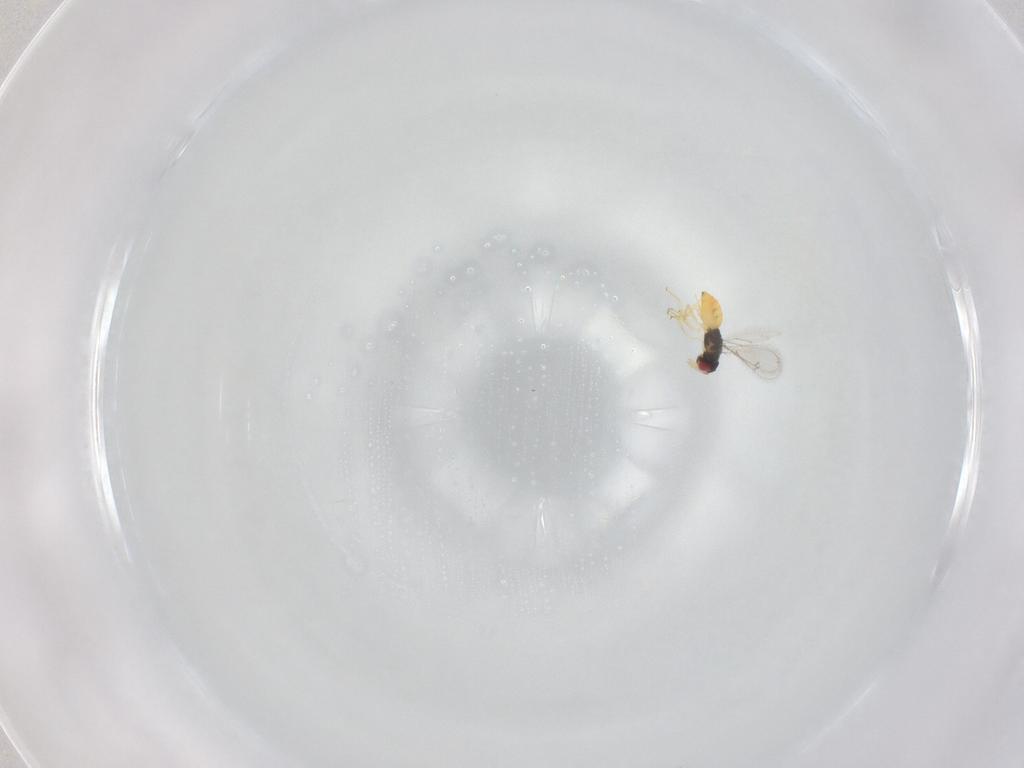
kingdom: Animalia
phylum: Arthropoda
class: Insecta
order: Hymenoptera
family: Eulophidae
